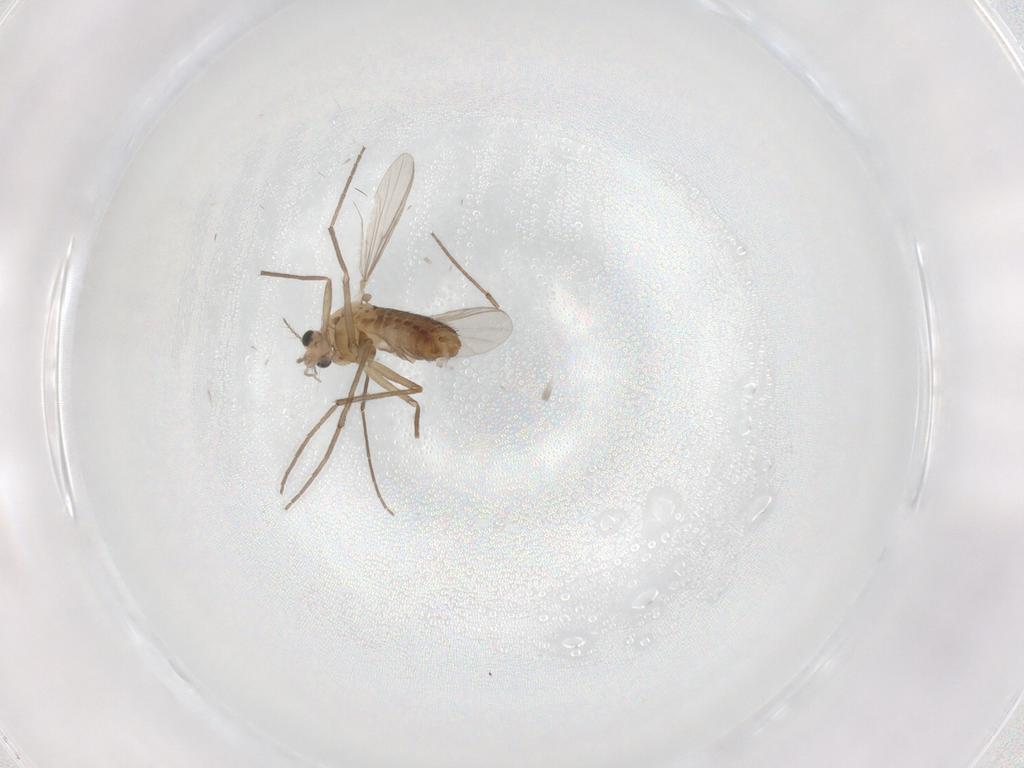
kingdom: Animalia
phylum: Arthropoda
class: Insecta
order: Diptera
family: Chironomidae
